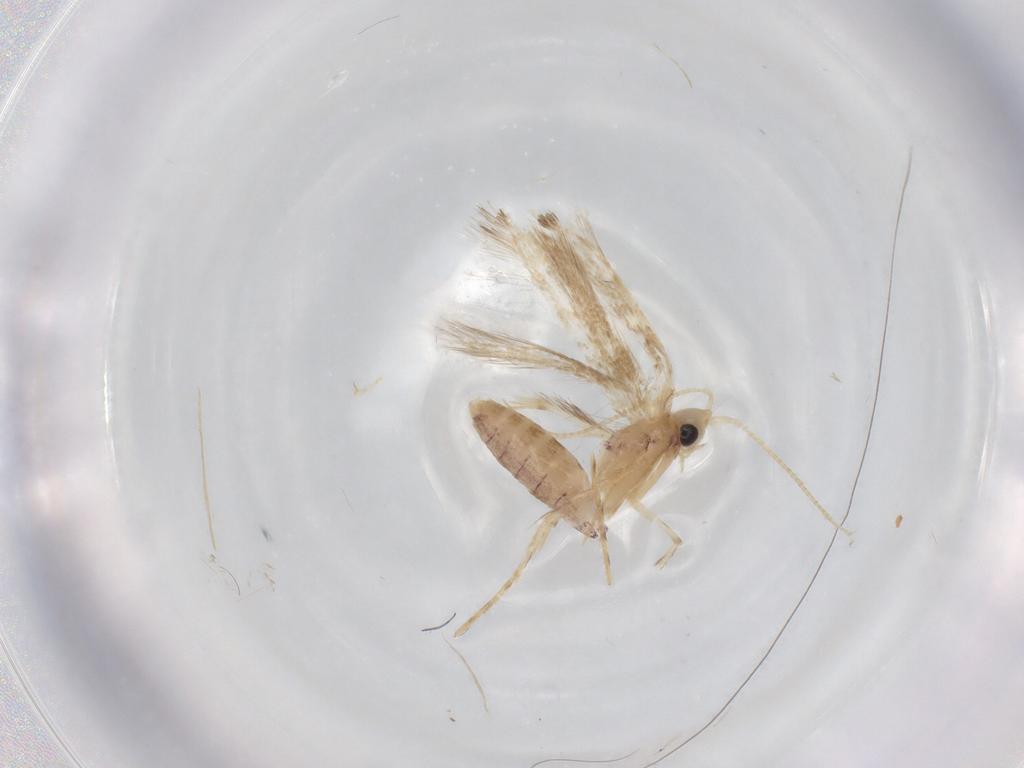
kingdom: Animalia
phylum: Arthropoda
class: Insecta
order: Lepidoptera
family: Lyonetiidae
